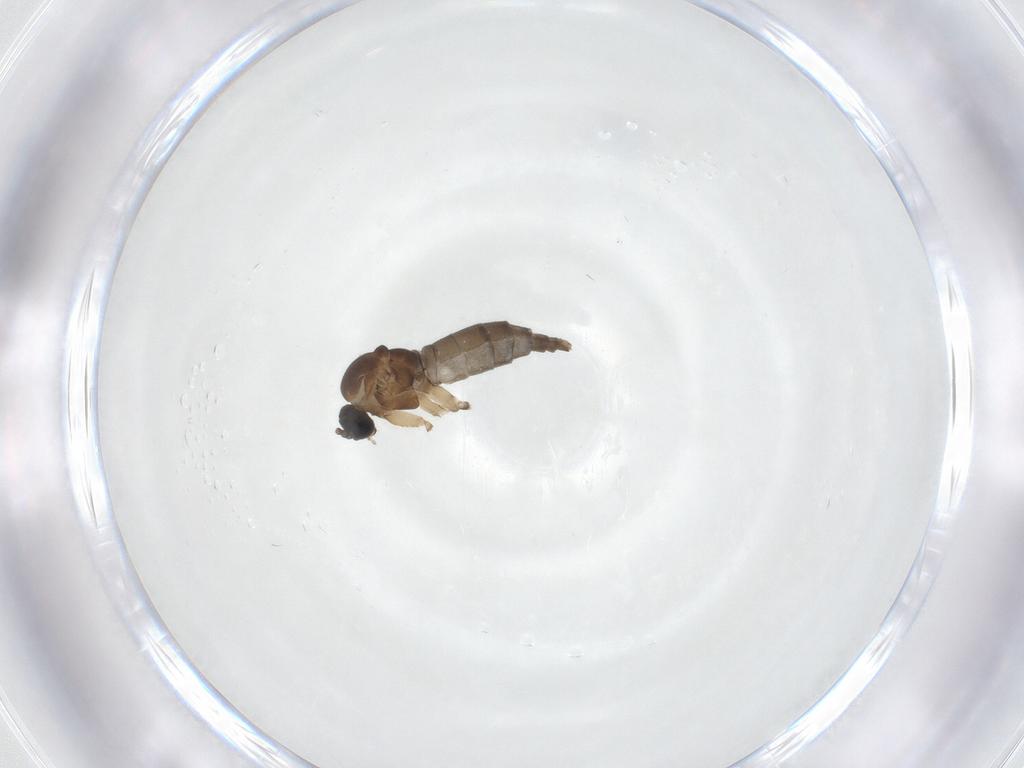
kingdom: Animalia
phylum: Arthropoda
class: Insecta
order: Diptera
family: Sciaridae
